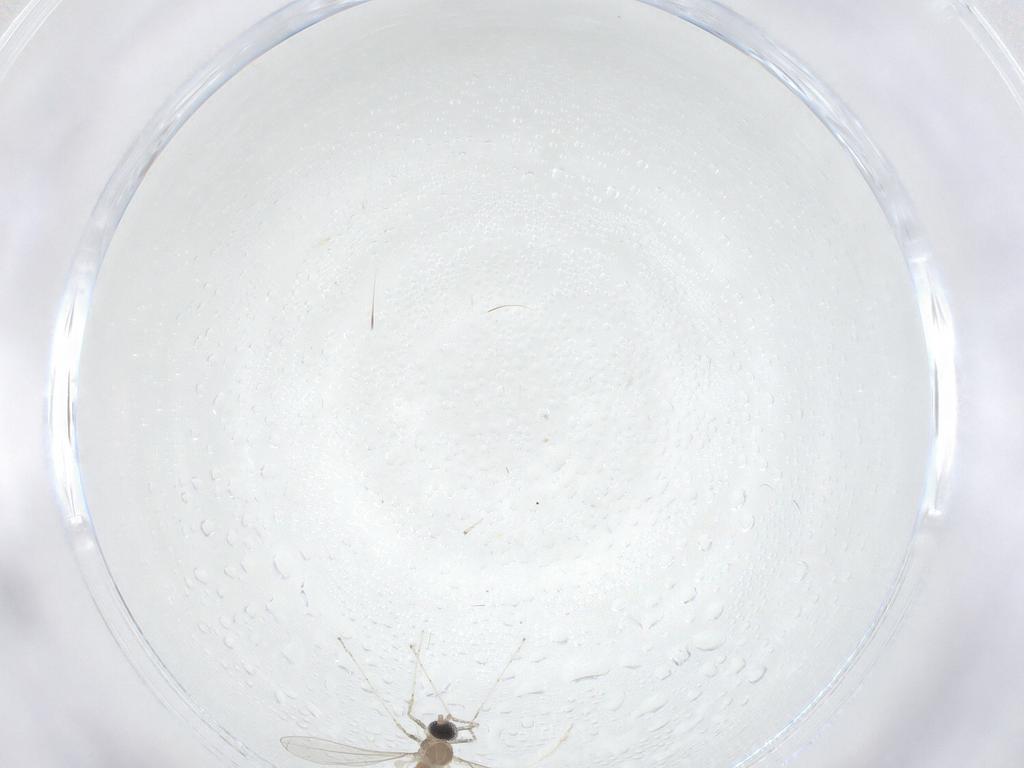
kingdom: Animalia
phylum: Arthropoda
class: Insecta
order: Diptera
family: Cecidomyiidae
